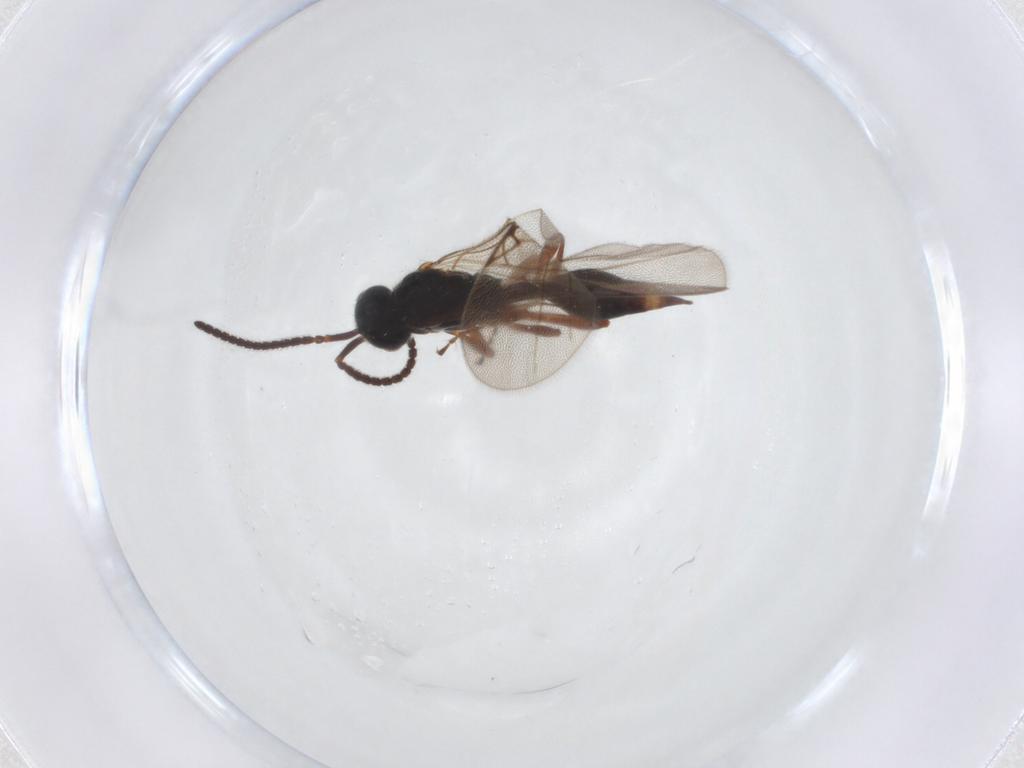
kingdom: Animalia
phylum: Arthropoda
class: Insecta
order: Hymenoptera
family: Diapriidae
